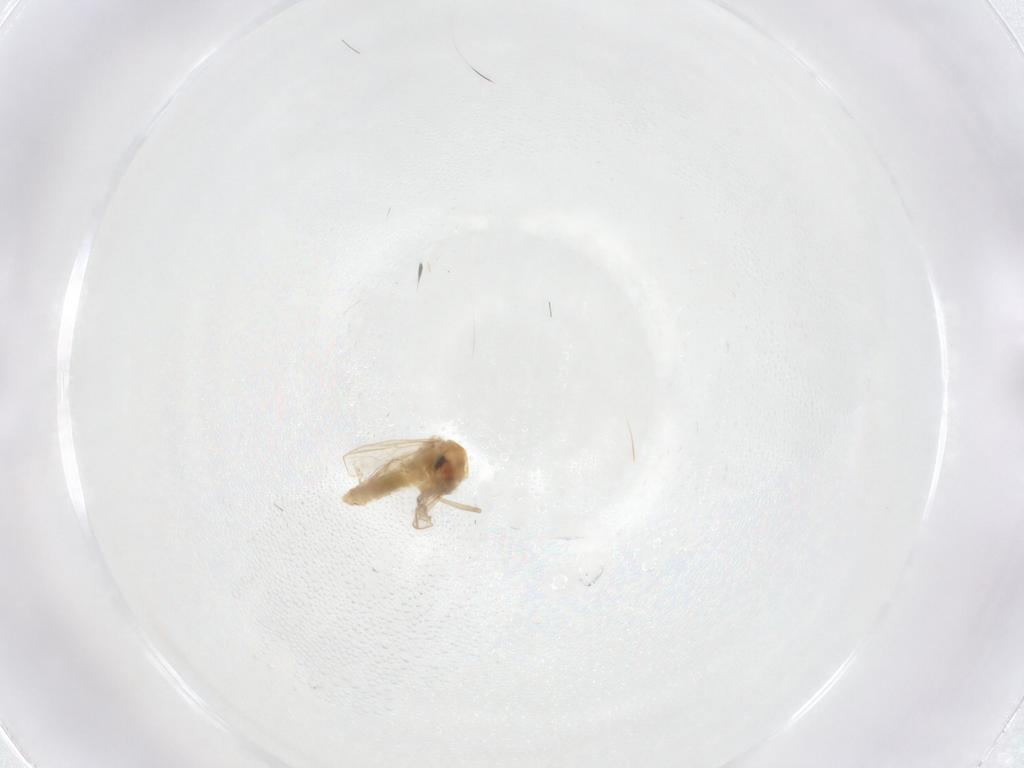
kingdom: Animalia
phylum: Arthropoda
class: Insecta
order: Diptera
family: Chironomidae
